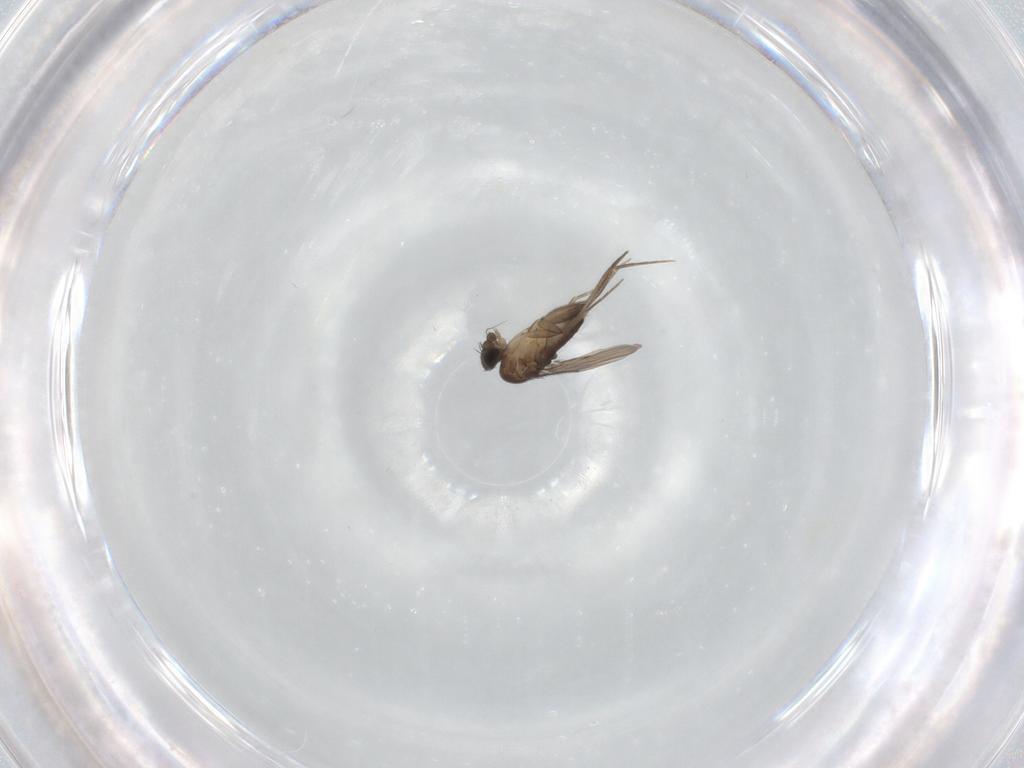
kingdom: Animalia
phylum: Arthropoda
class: Insecta
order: Diptera
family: Phoridae
